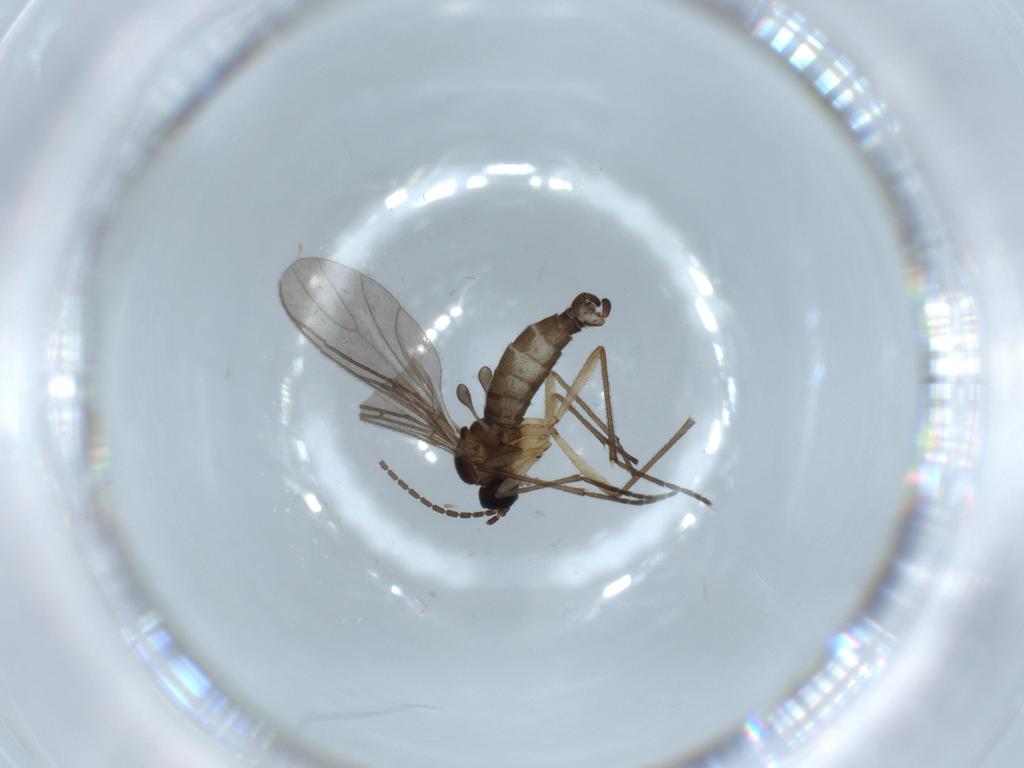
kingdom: Animalia
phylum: Arthropoda
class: Insecta
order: Diptera
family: Sciaridae
